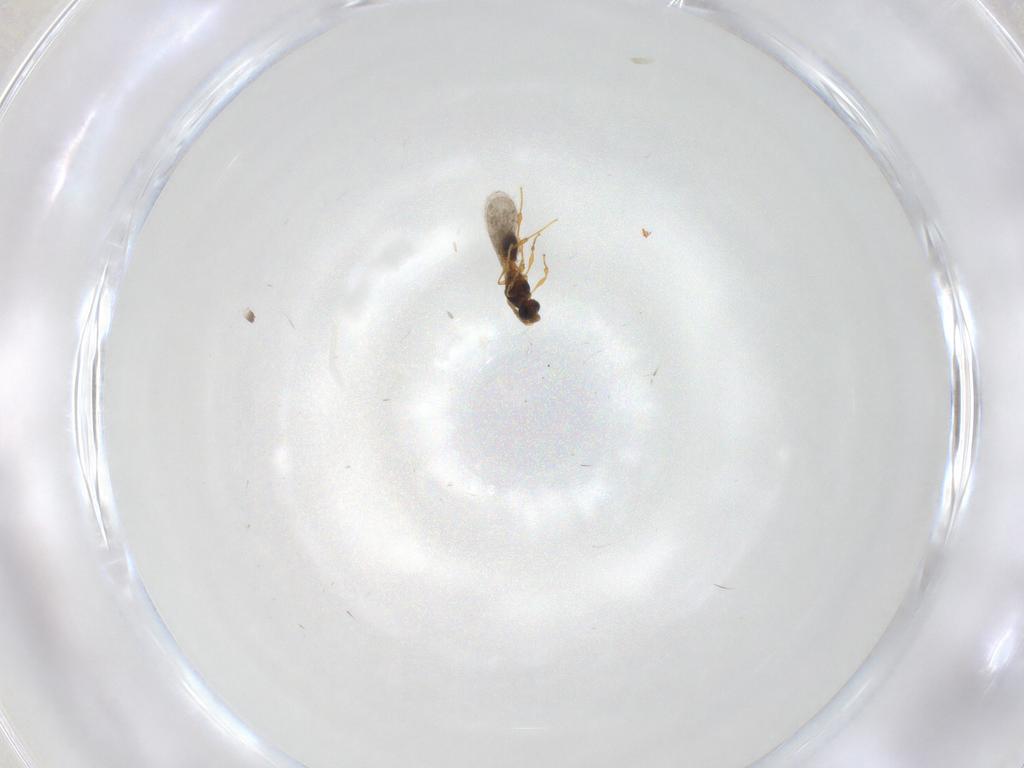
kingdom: Animalia
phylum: Arthropoda
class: Insecta
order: Hymenoptera
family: Platygastridae
